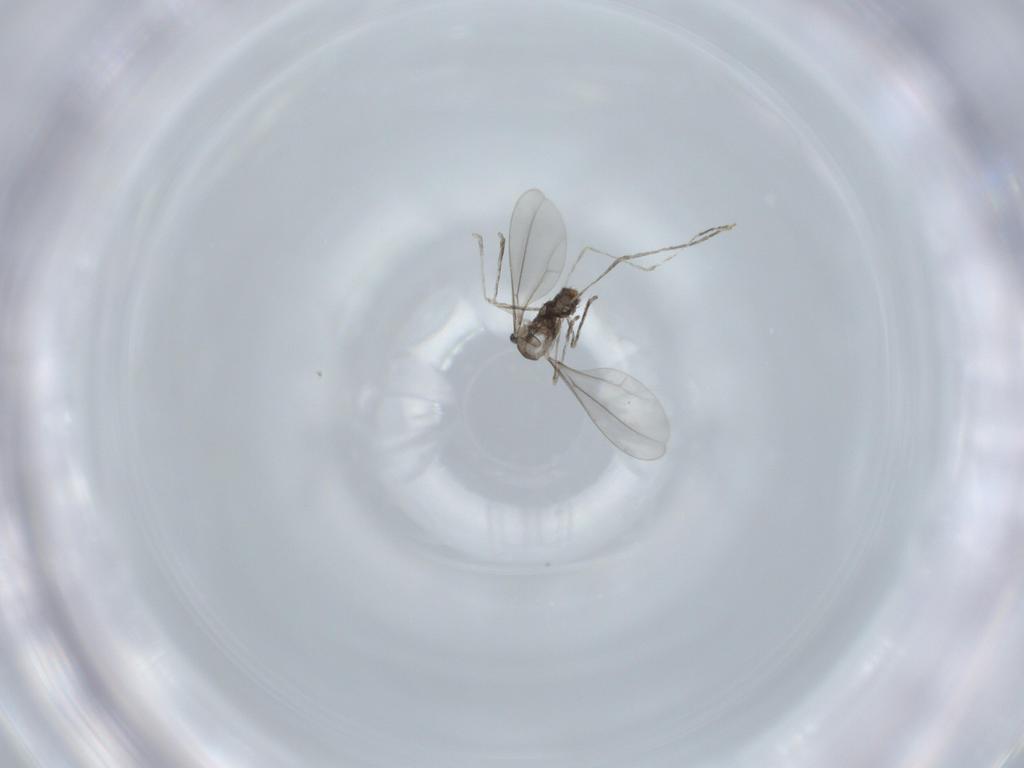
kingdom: Animalia
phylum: Arthropoda
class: Insecta
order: Diptera
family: Cecidomyiidae
